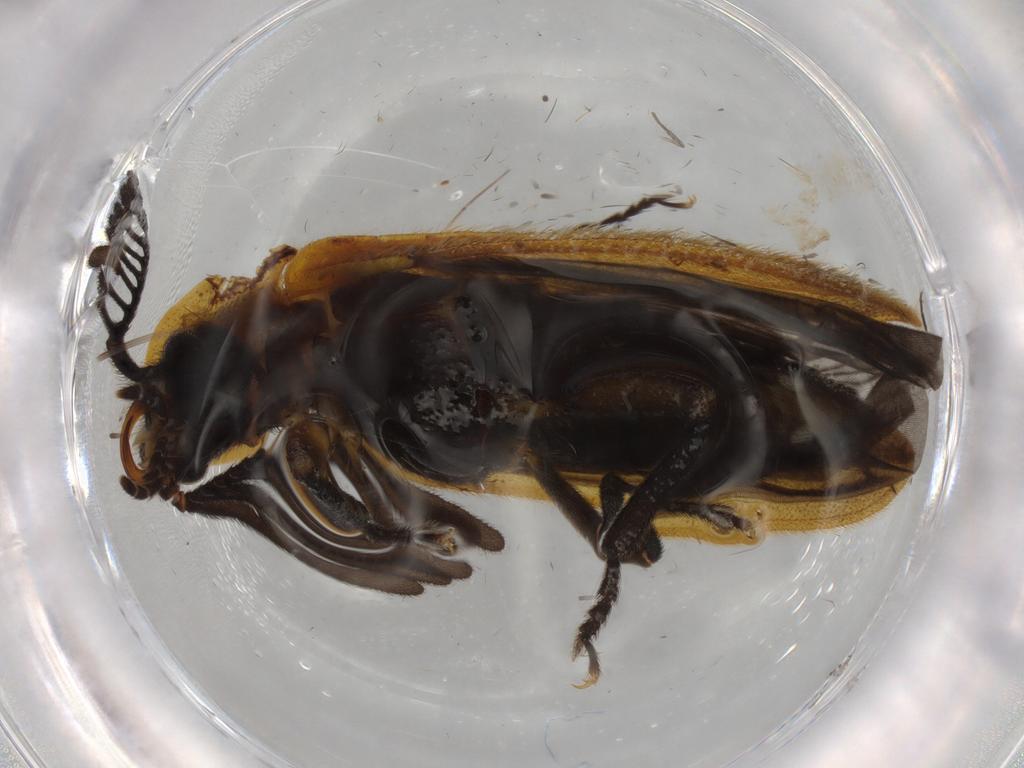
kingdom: Animalia
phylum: Arthropoda
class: Insecta
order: Coleoptera
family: Lampyridae
